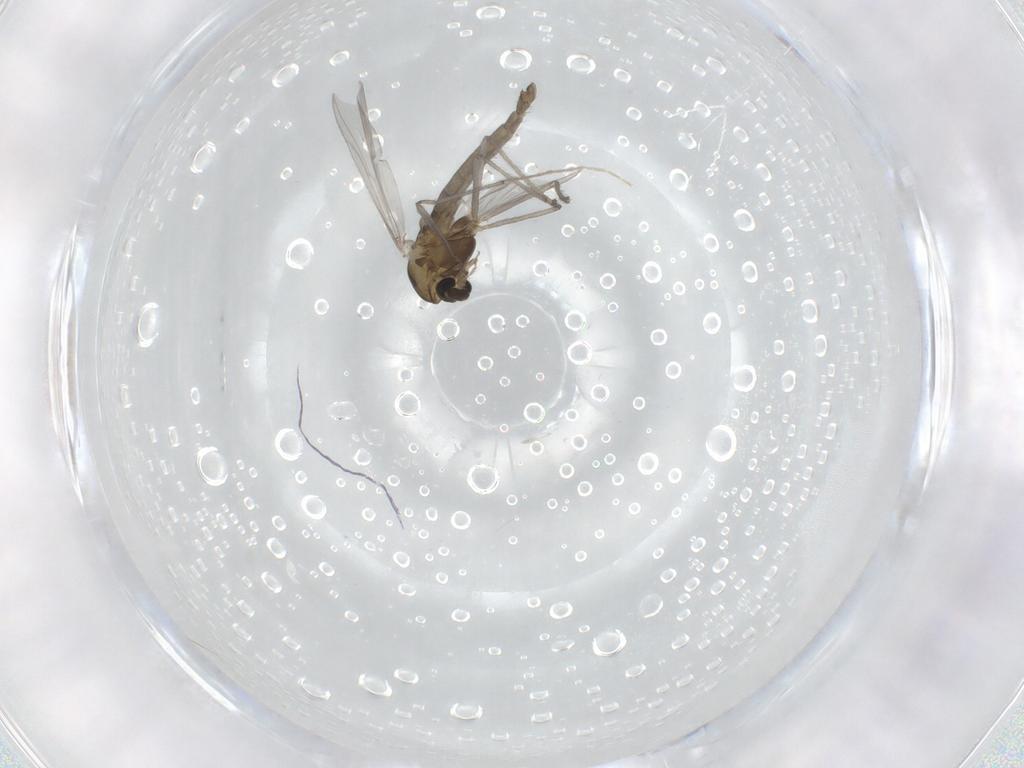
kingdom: Animalia
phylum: Arthropoda
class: Insecta
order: Diptera
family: Chironomidae
